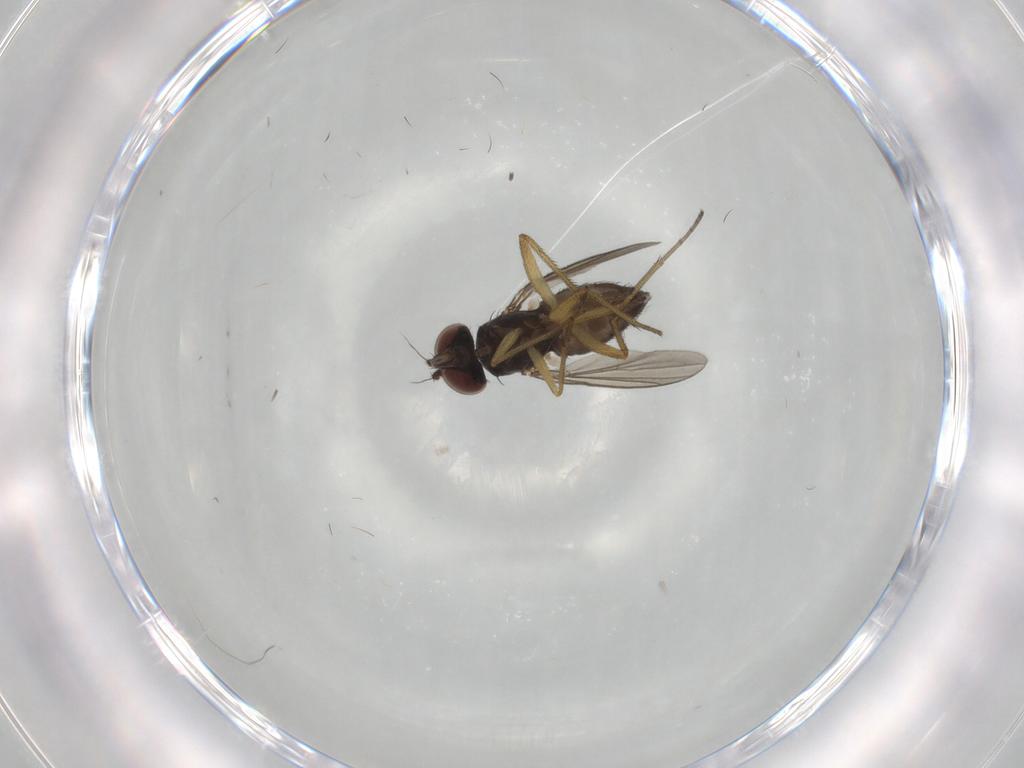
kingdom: Animalia
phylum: Arthropoda
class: Insecta
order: Diptera
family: Dolichopodidae
